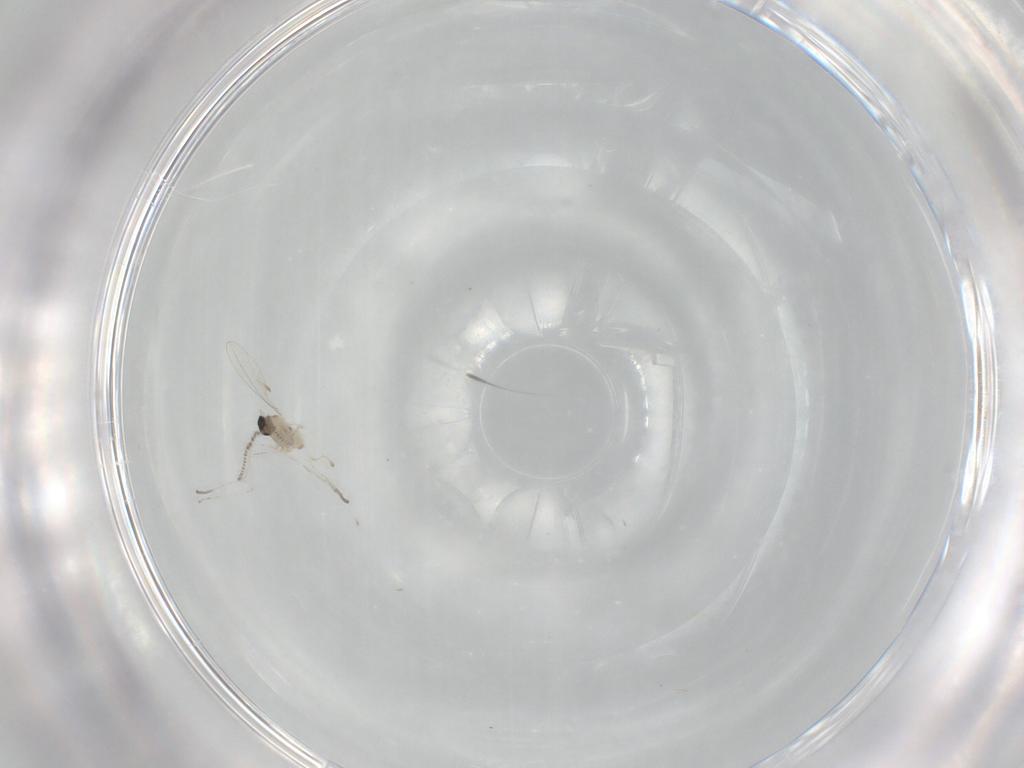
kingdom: Animalia
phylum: Arthropoda
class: Insecta
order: Diptera
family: Cecidomyiidae
